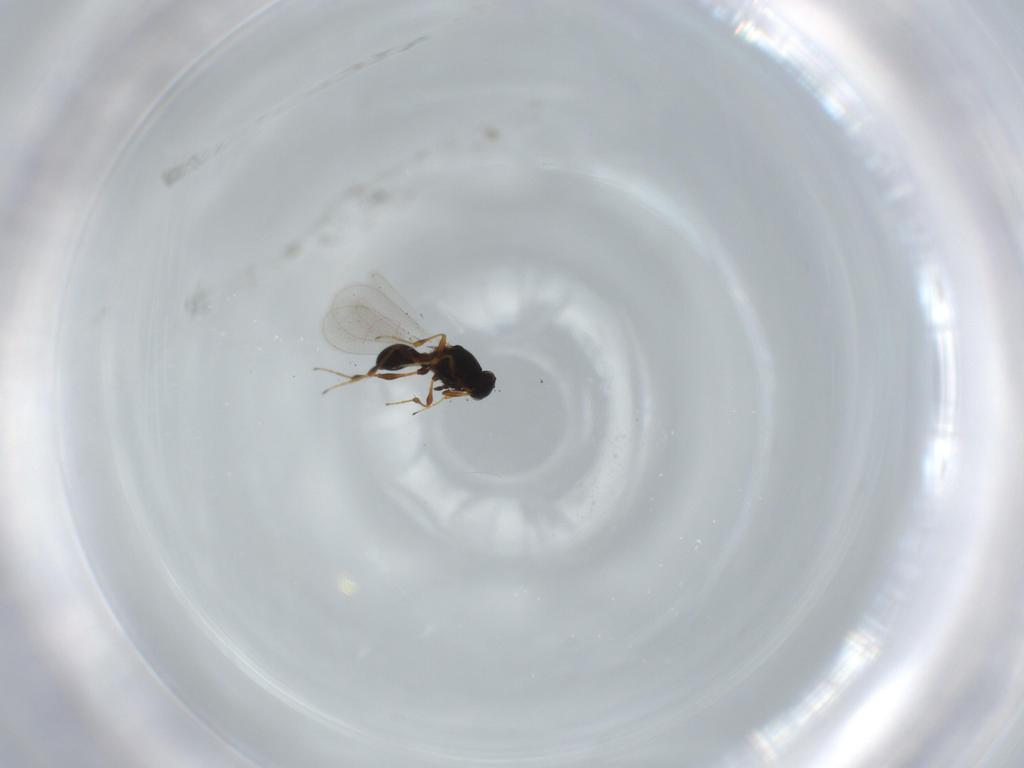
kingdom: Animalia
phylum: Arthropoda
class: Insecta
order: Hymenoptera
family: Platygastridae
